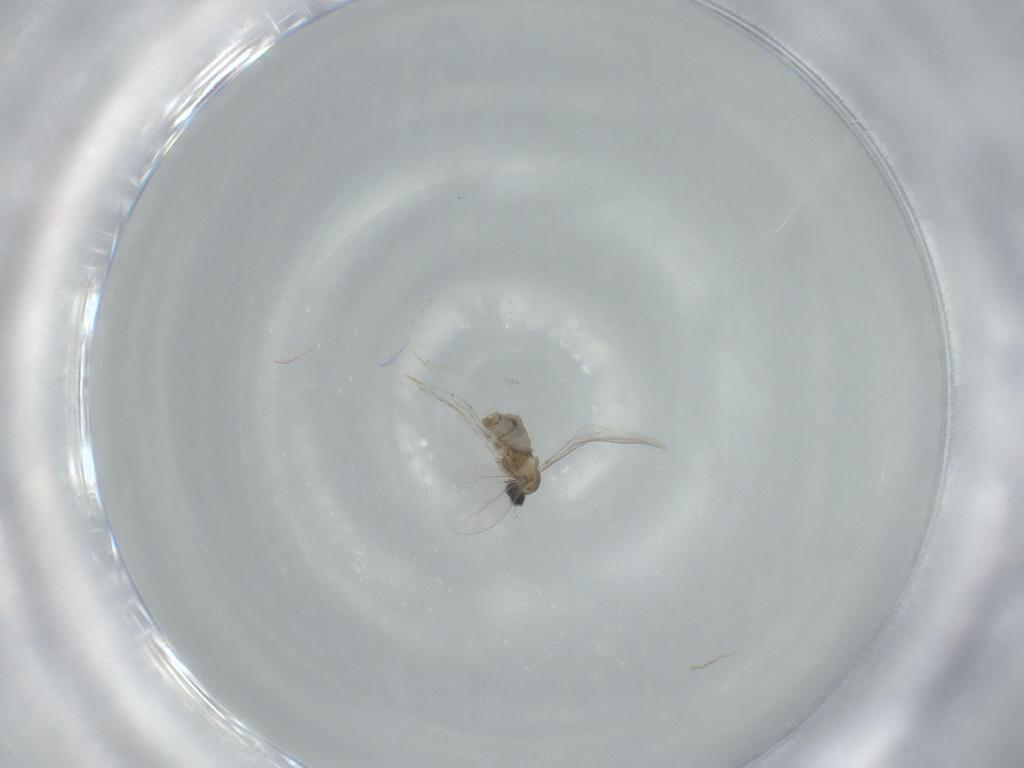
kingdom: Animalia
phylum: Arthropoda
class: Insecta
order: Diptera
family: Cecidomyiidae
